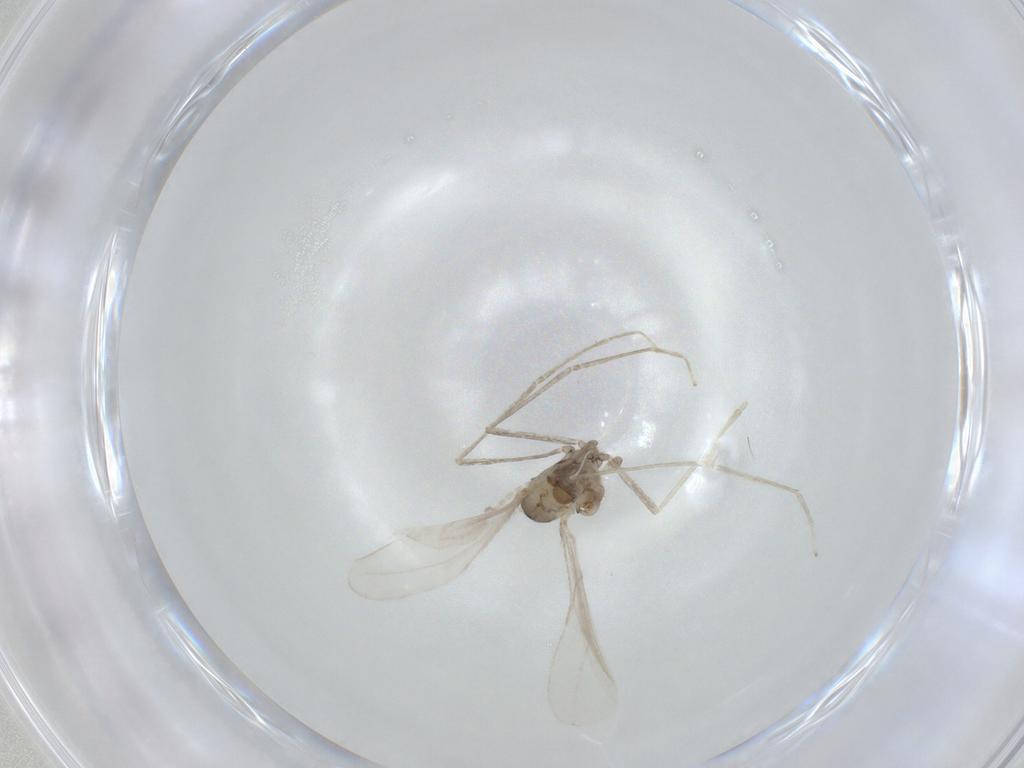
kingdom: Animalia
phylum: Arthropoda
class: Insecta
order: Diptera
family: Cecidomyiidae
